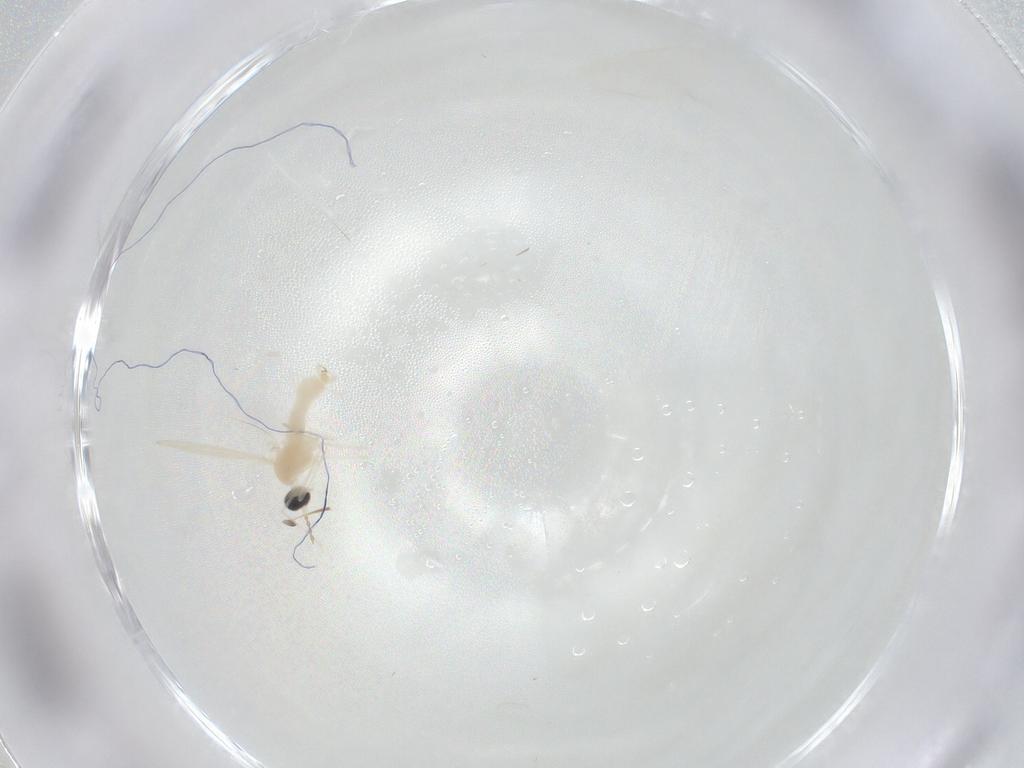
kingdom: Animalia
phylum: Arthropoda
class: Insecta
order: Diptera
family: Cecidomyiidae
